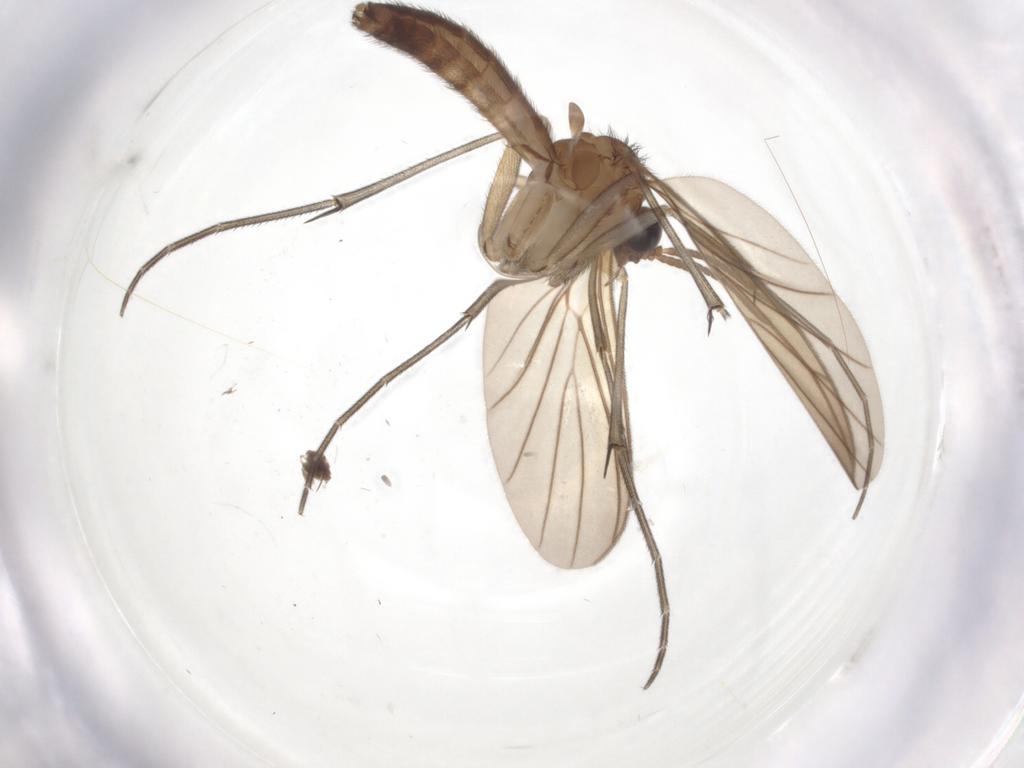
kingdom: Animalia
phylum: Arthropoda
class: Insecta
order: Diptera
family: Keroplatidae
